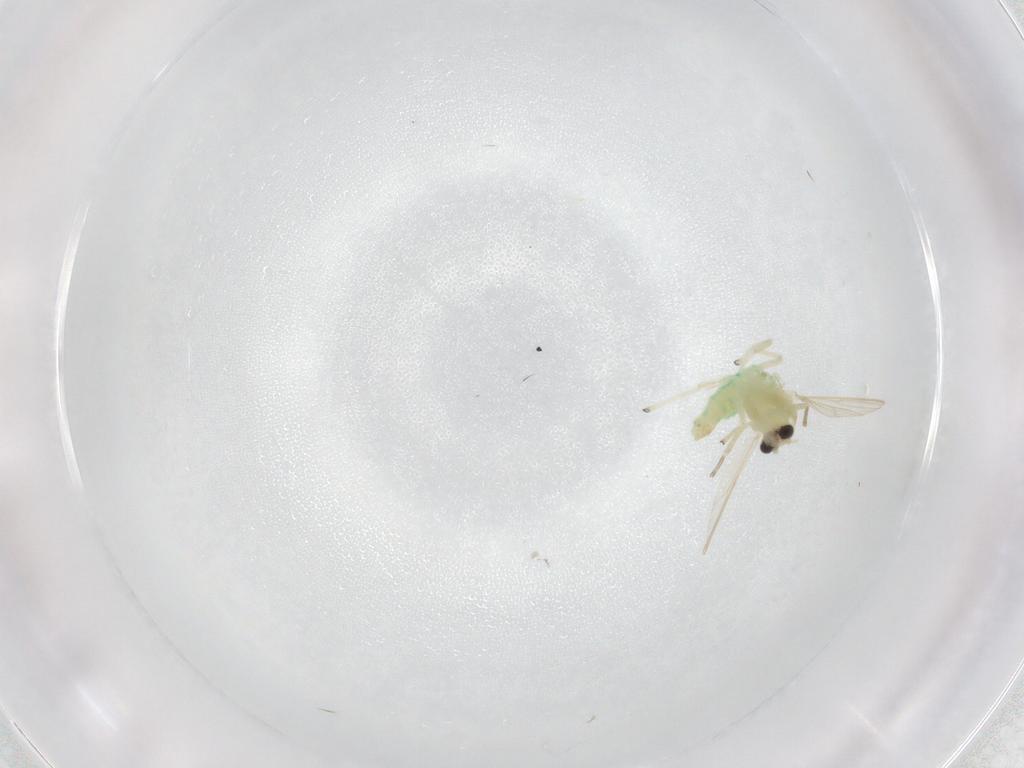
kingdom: Animalia
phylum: Arthropoda
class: Insecta
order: Diptera
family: Chironomidae
